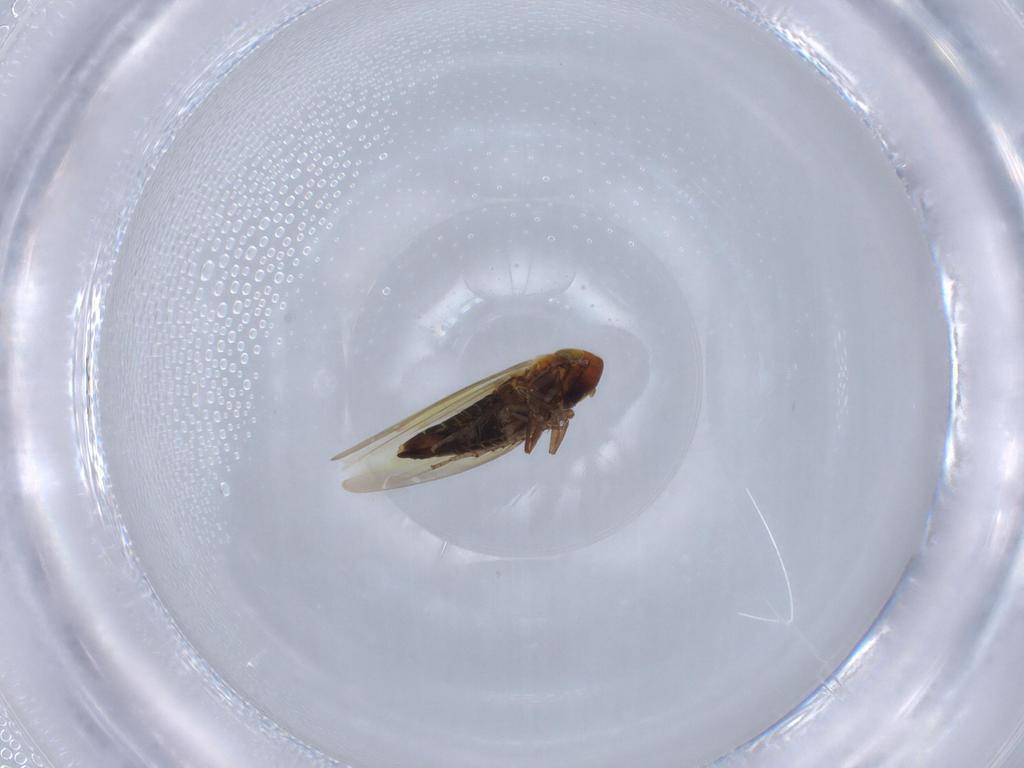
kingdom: Animalia
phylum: Arthropoda
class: Insecta
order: Hemiptera
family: Cicadellidae
